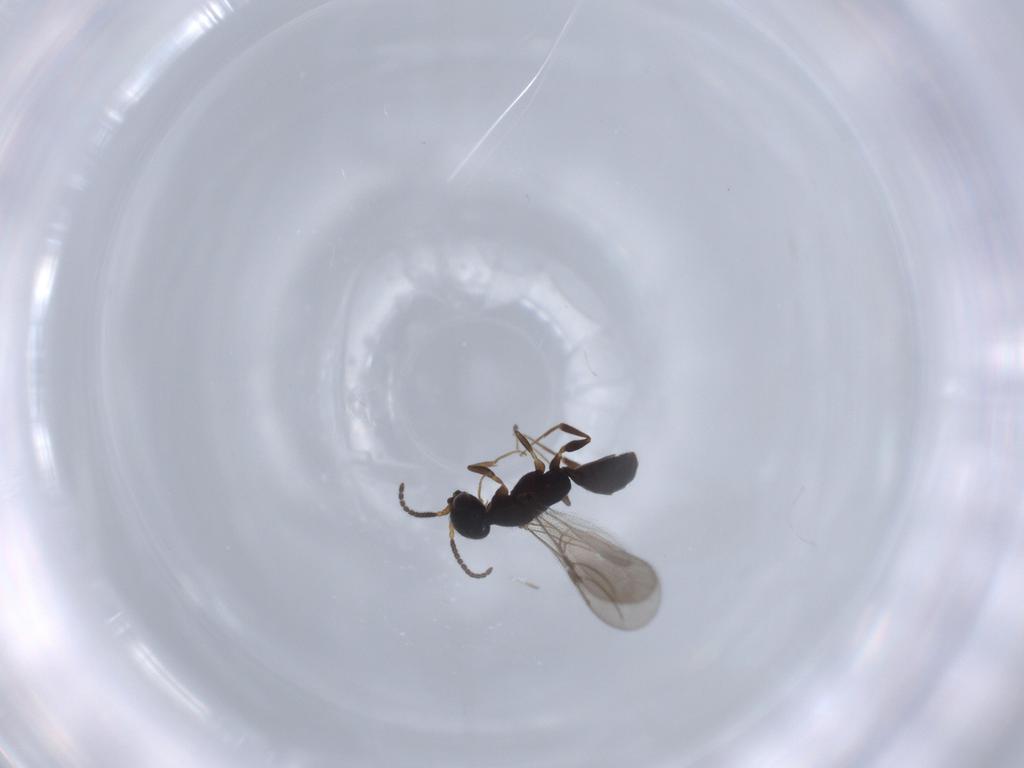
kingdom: Animalia
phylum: Arthropoda
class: Insecta
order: Hymenoptera
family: Bethylidae
